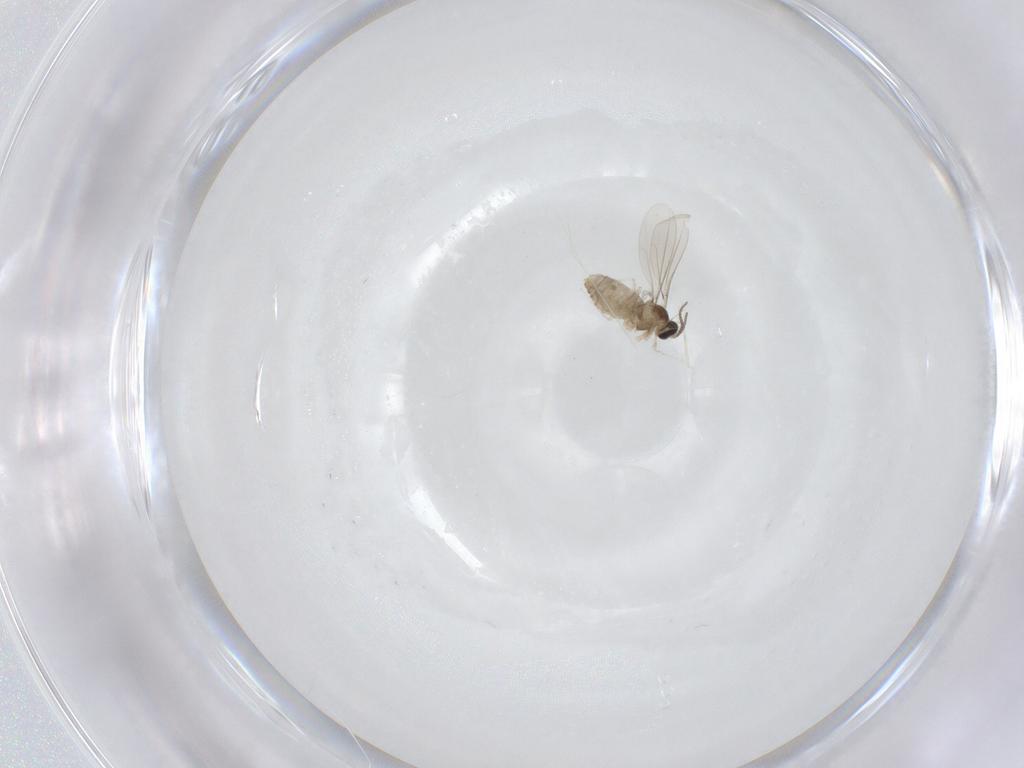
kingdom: Animalia
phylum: Arthropoda
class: Insecta
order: Diptera
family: Cecidomyiidae
